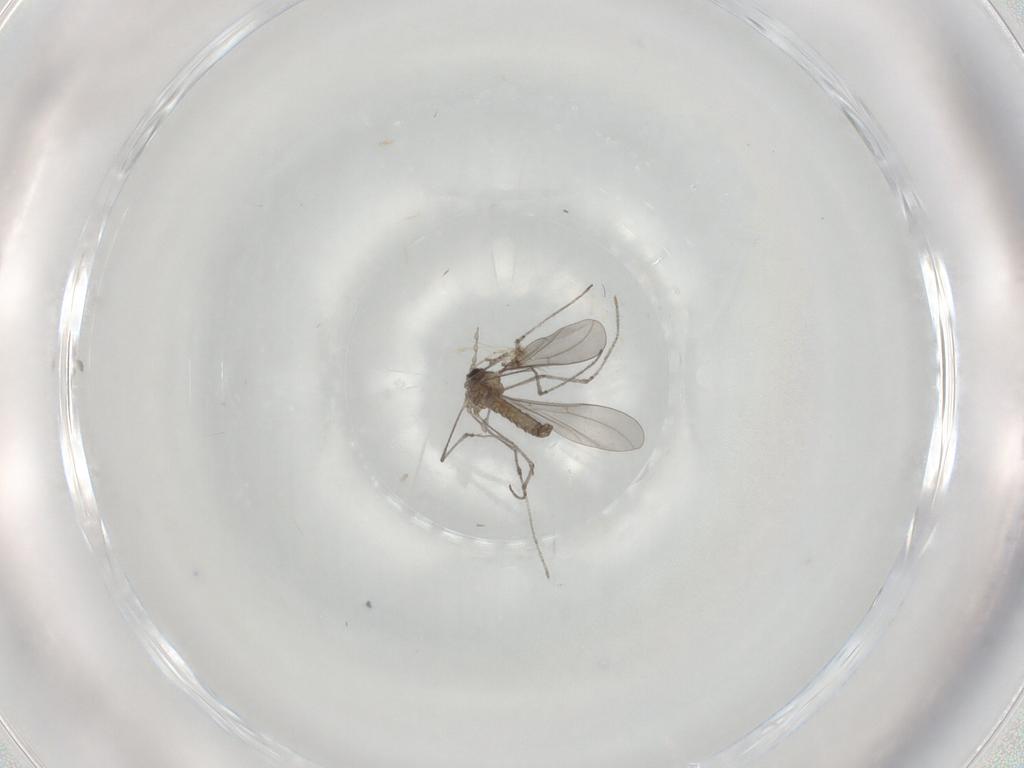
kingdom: Animalia
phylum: Arthropoda
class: Insecta
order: Diptera
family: Cecidomyiidae
